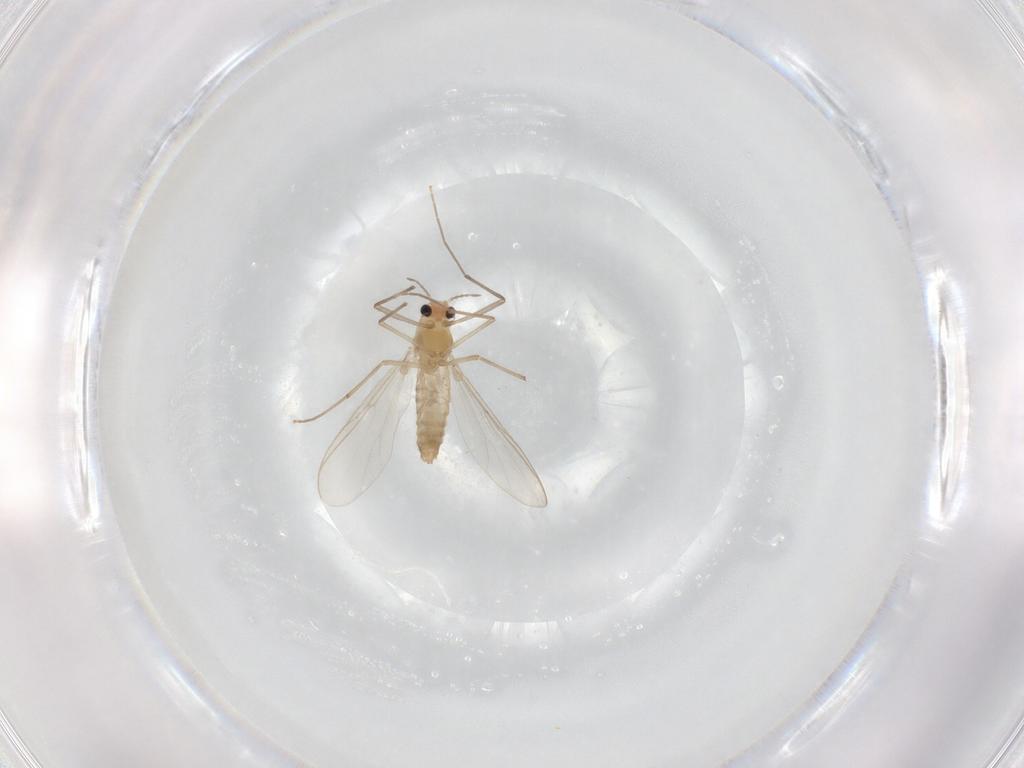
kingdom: Animalia
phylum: Arthropoda
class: Insecta
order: Diptera
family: Chironomidae
